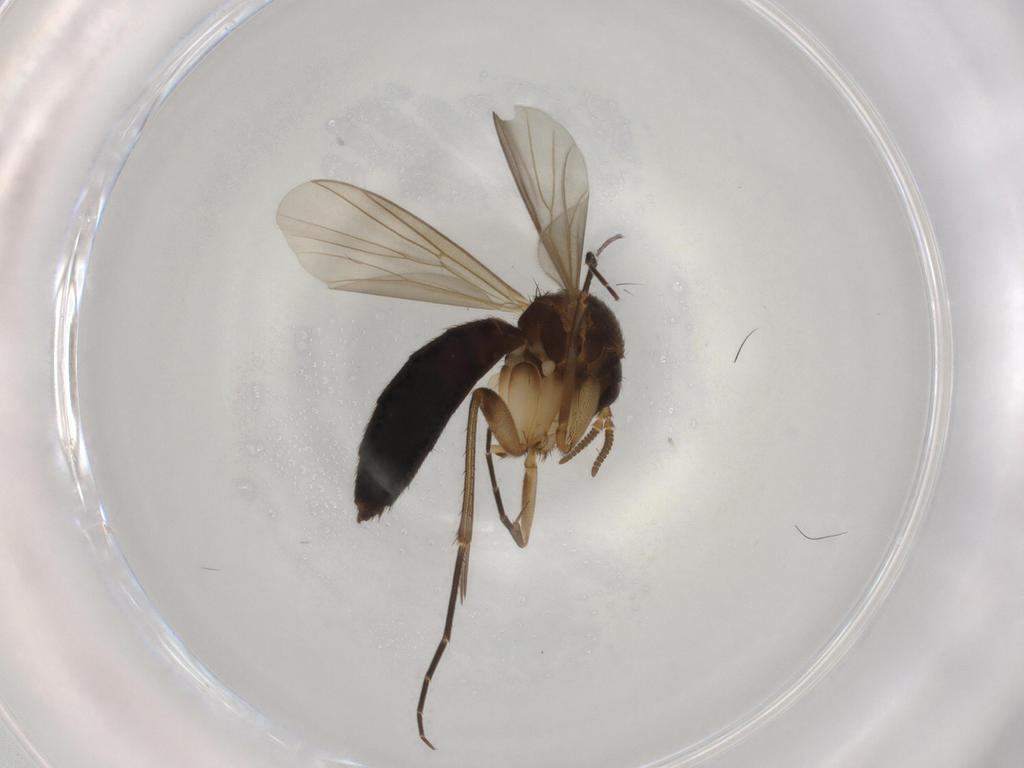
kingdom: Animalia
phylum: Arthropoda
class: Insecta
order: Diptera
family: Mycetophilidae
